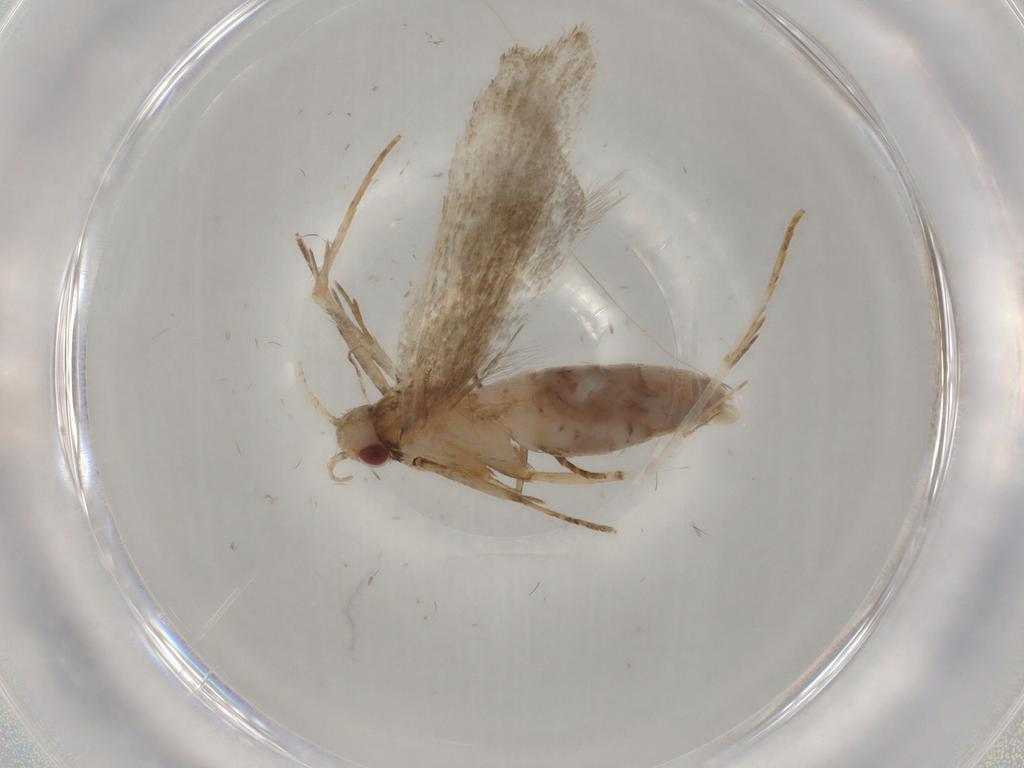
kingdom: Animalia
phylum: Arthropoda
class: Insecta
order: Lepidoptera
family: Gelechiidae
